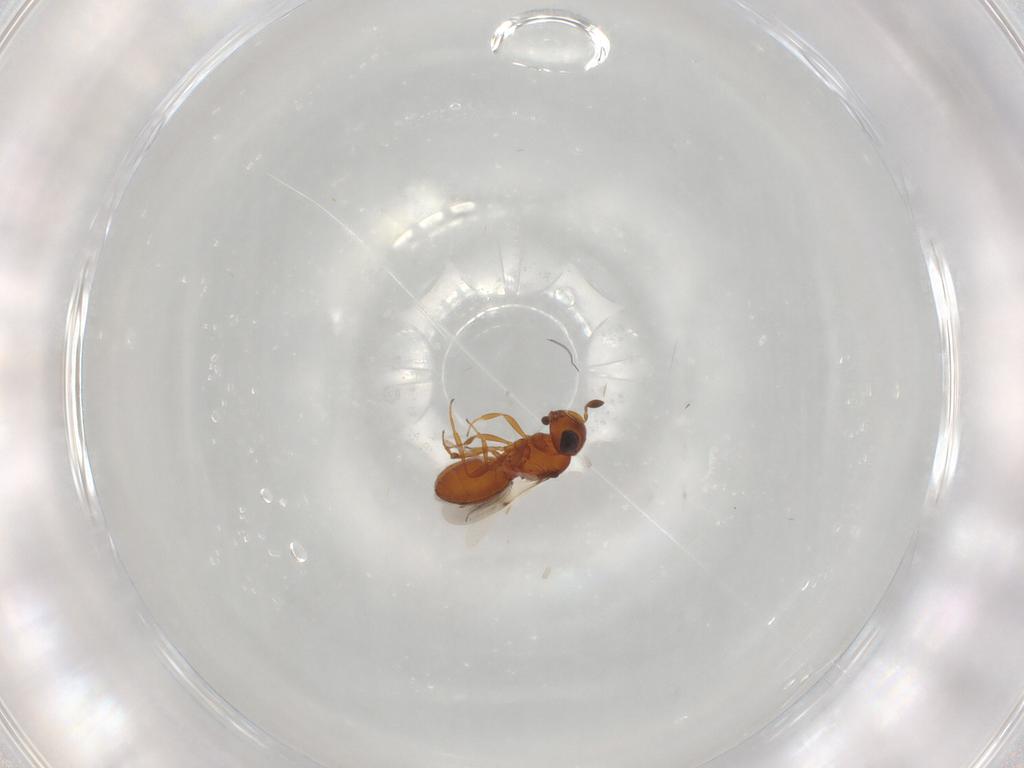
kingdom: Animalia
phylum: Arthropoda
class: Insecta
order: Hymenoptera
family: Scelionidae
